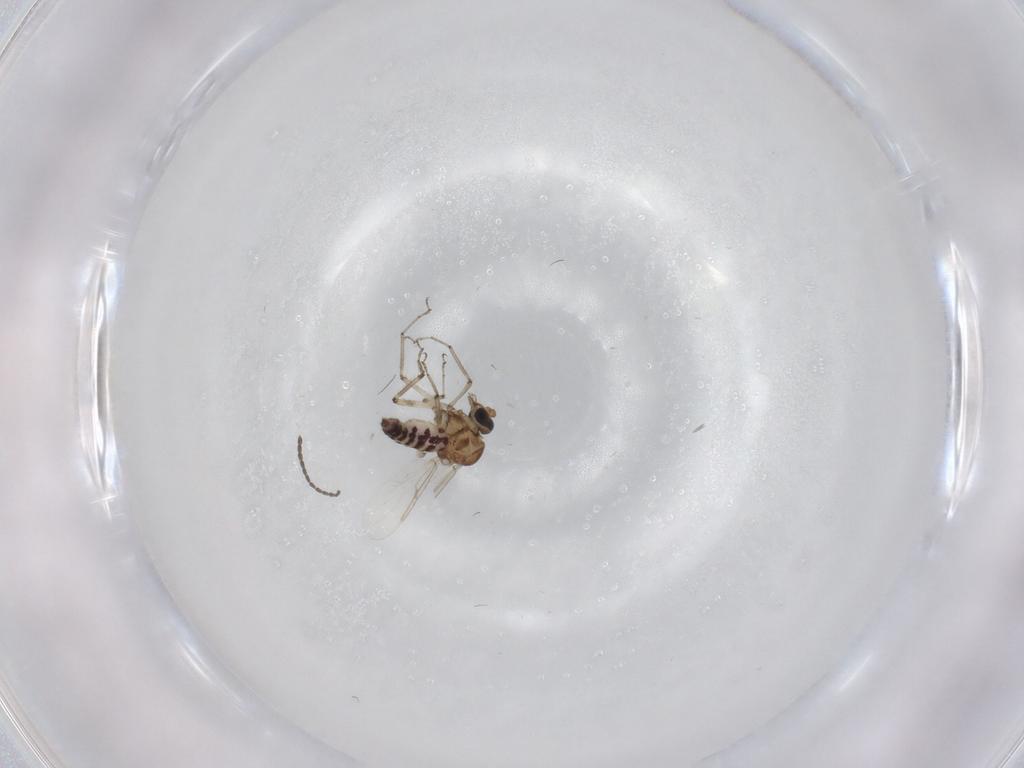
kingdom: Animalia
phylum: Arthropoda
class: Insecta
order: Diptera
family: Ceratopogonidae
